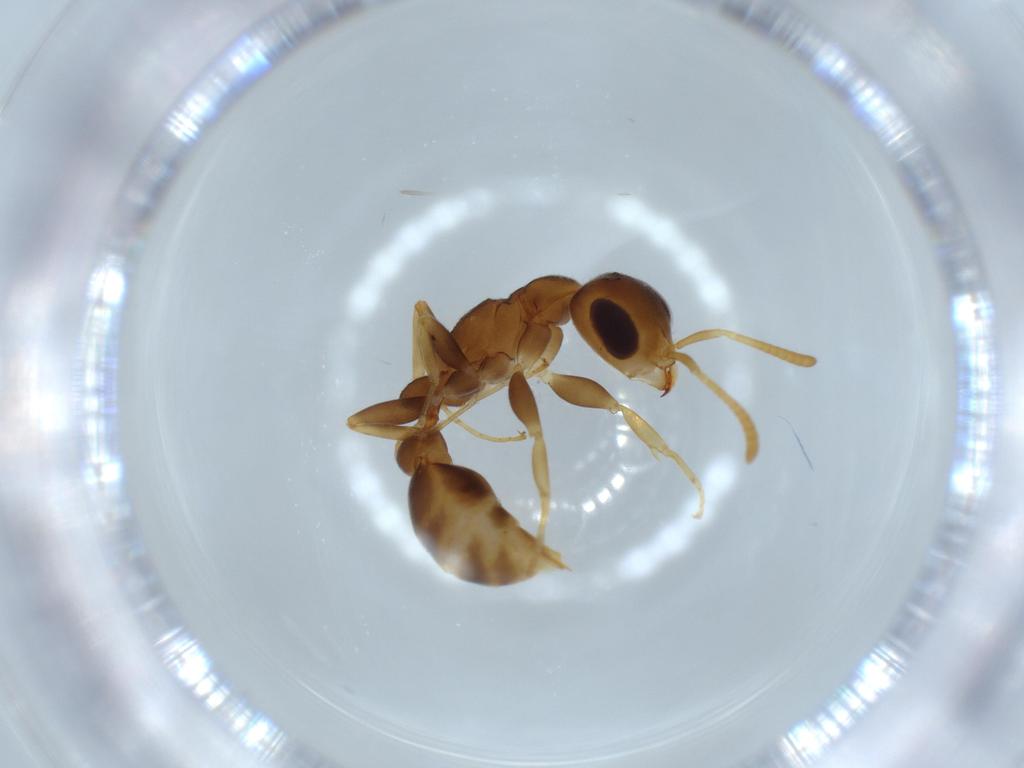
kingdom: Animalia
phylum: Arthropoda
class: Insecta
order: Hymenoptera
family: Formicidae
